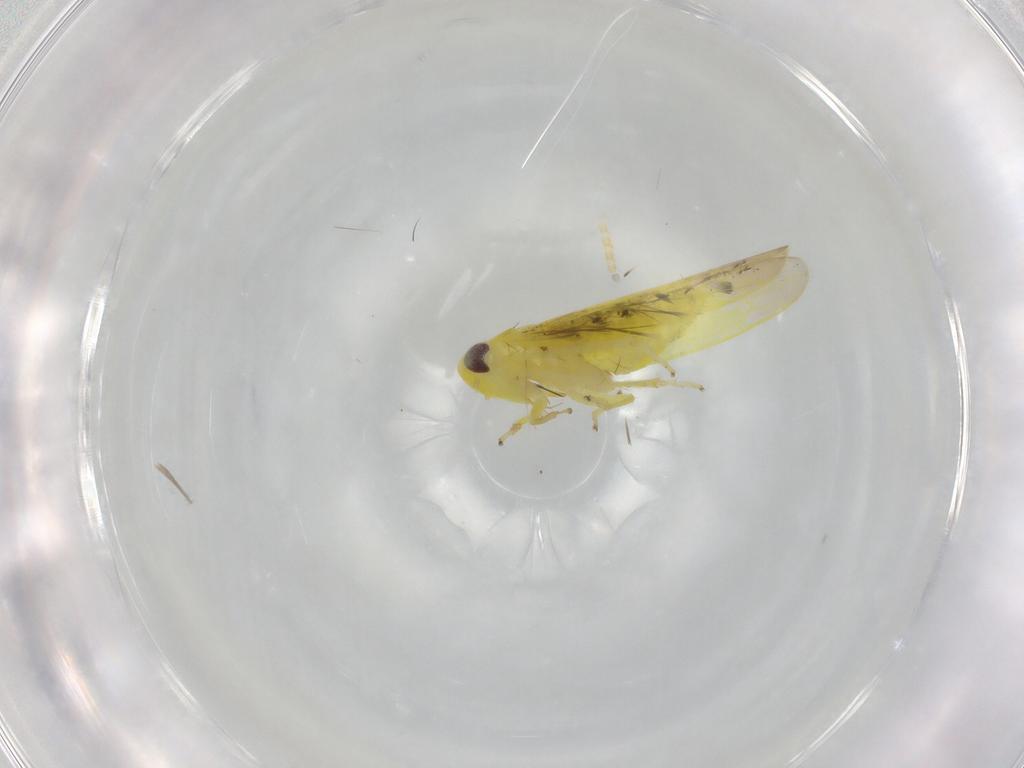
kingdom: Animalia
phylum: Arthropoda
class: Insecta
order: Hemiptera
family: Cicadellidae
